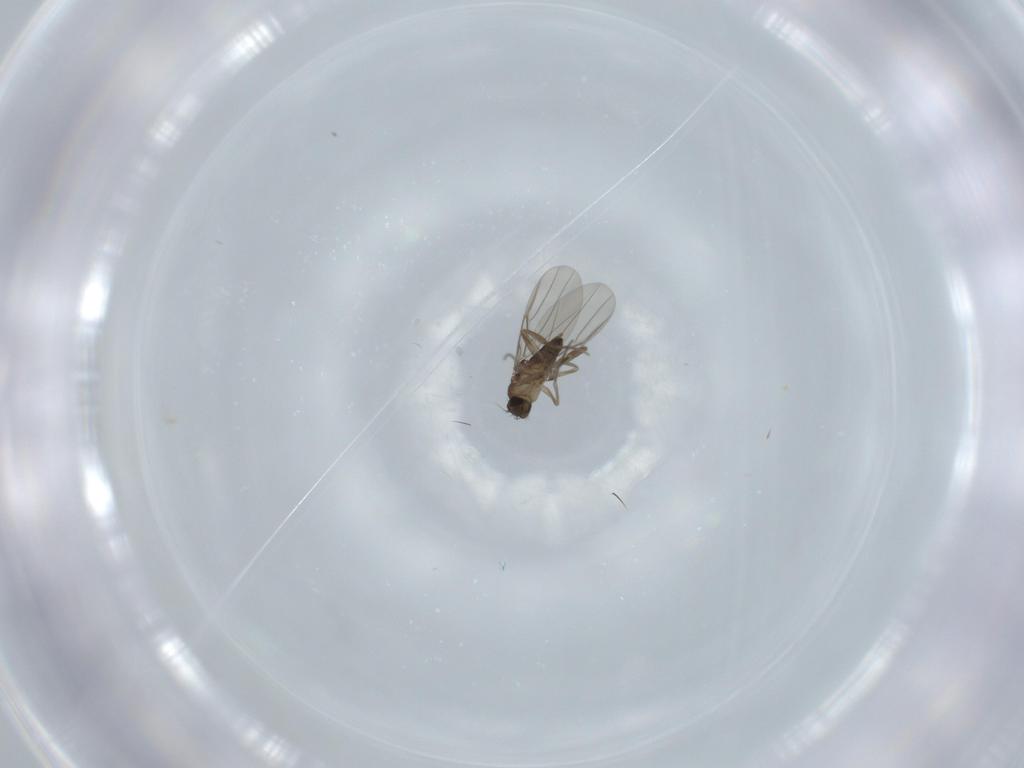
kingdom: Animalia
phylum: Arthropoda
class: Insecta
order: Diptera
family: Phoridae
